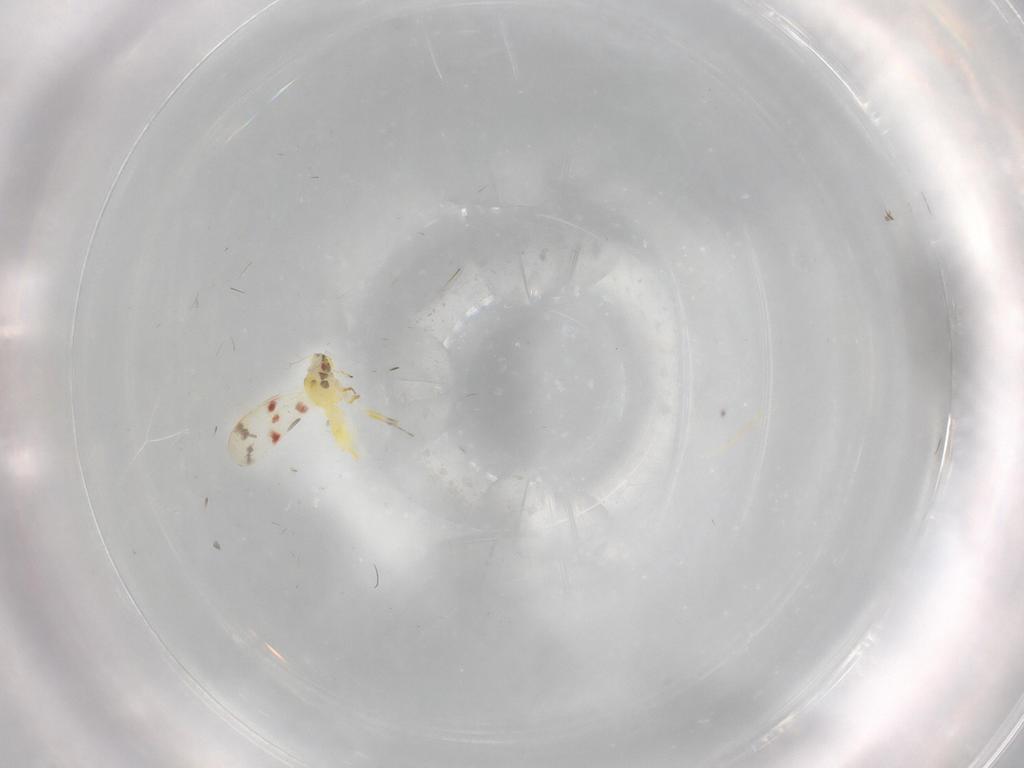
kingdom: Animalia
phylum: Arthropoda
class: Insecta
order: Hemiptera
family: Aleyrodidae
